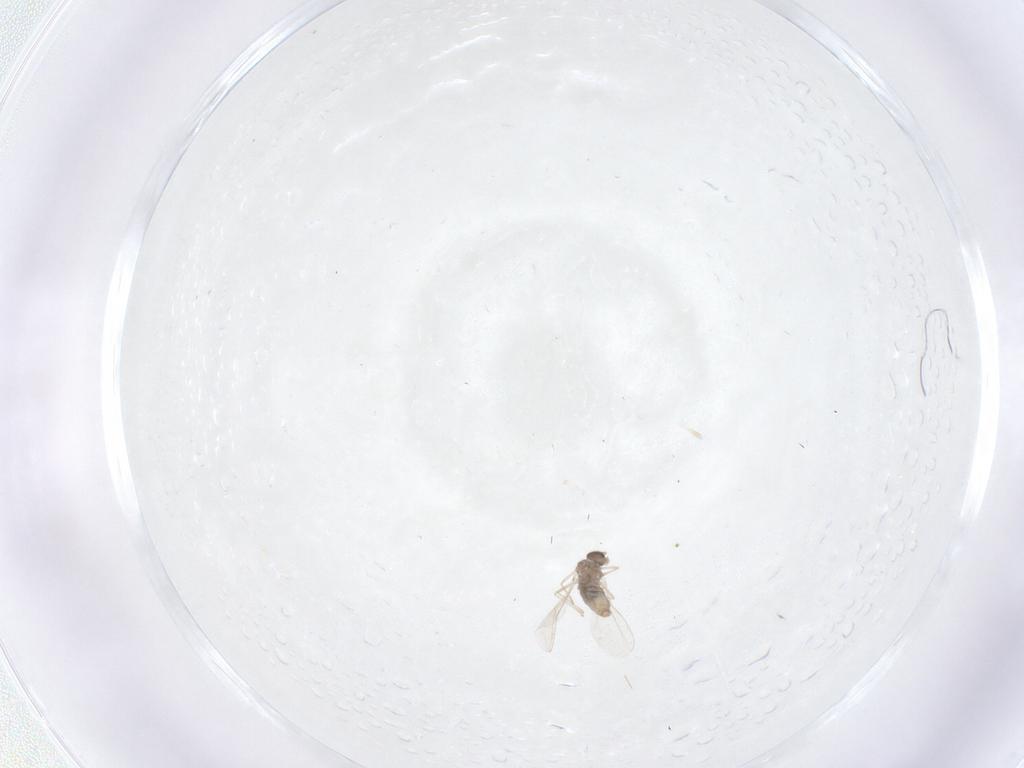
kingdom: Animalia
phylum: Arthropoda
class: Insecta
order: Diptera
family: Cecidomyiidae
